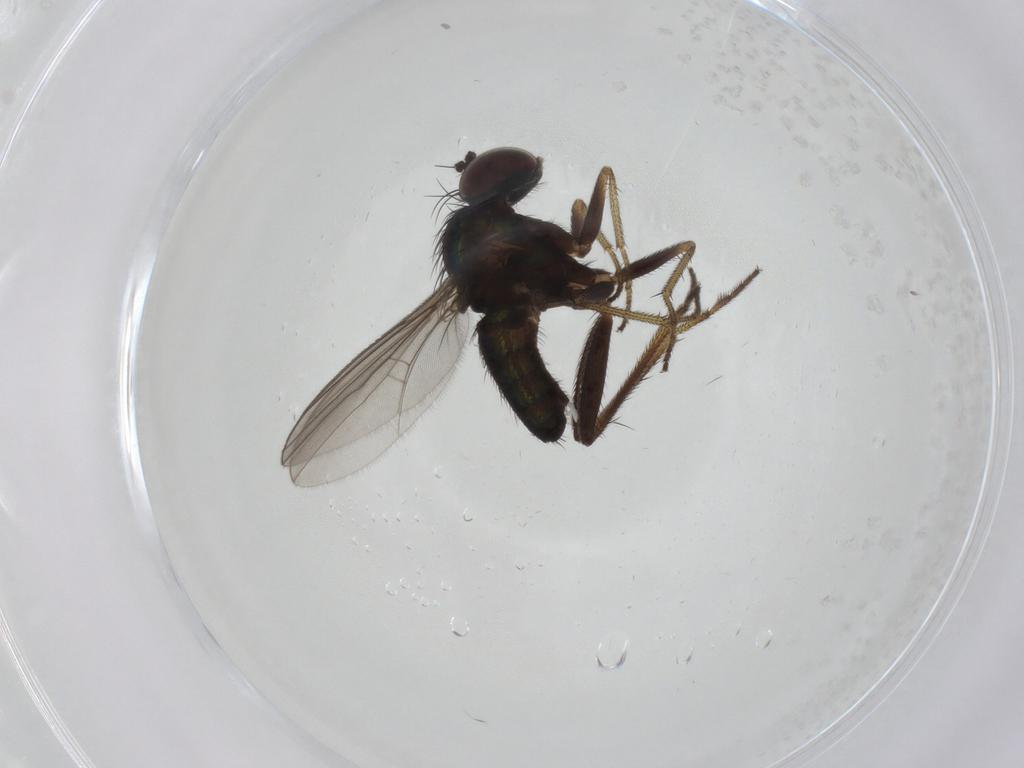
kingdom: Animalia
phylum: Arthropoda
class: Insecta
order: Diptera
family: Dolichopodidae
